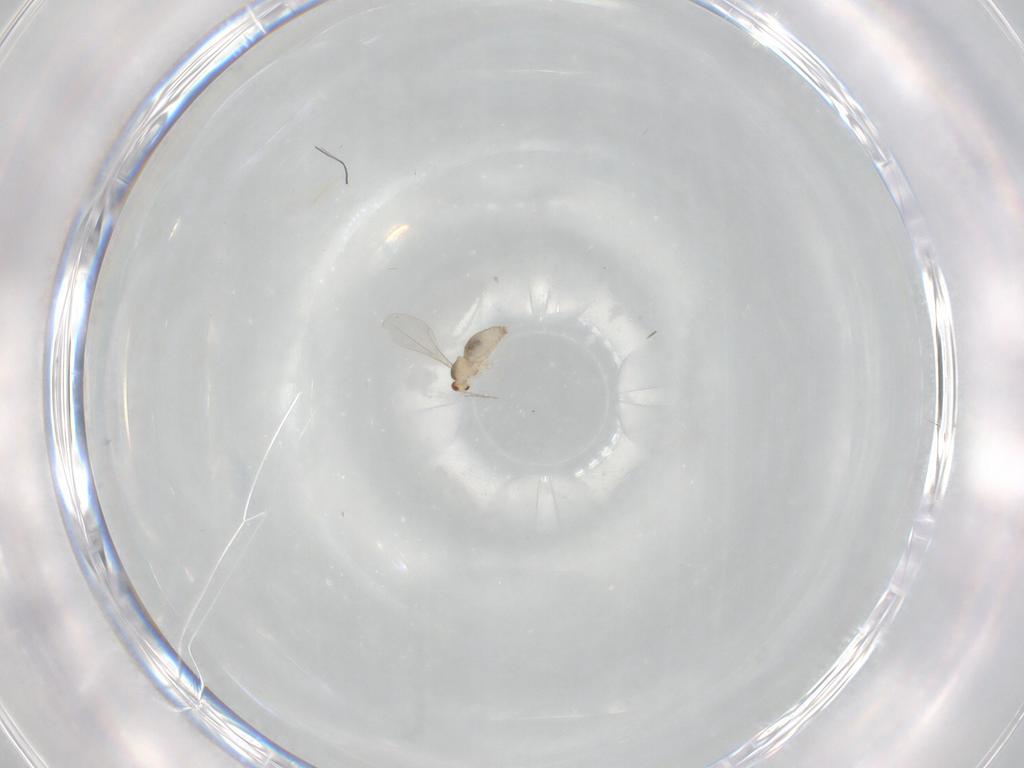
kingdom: Animalia
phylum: Arthropoda
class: Insecta
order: Diptera
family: Cecidomyiidae
